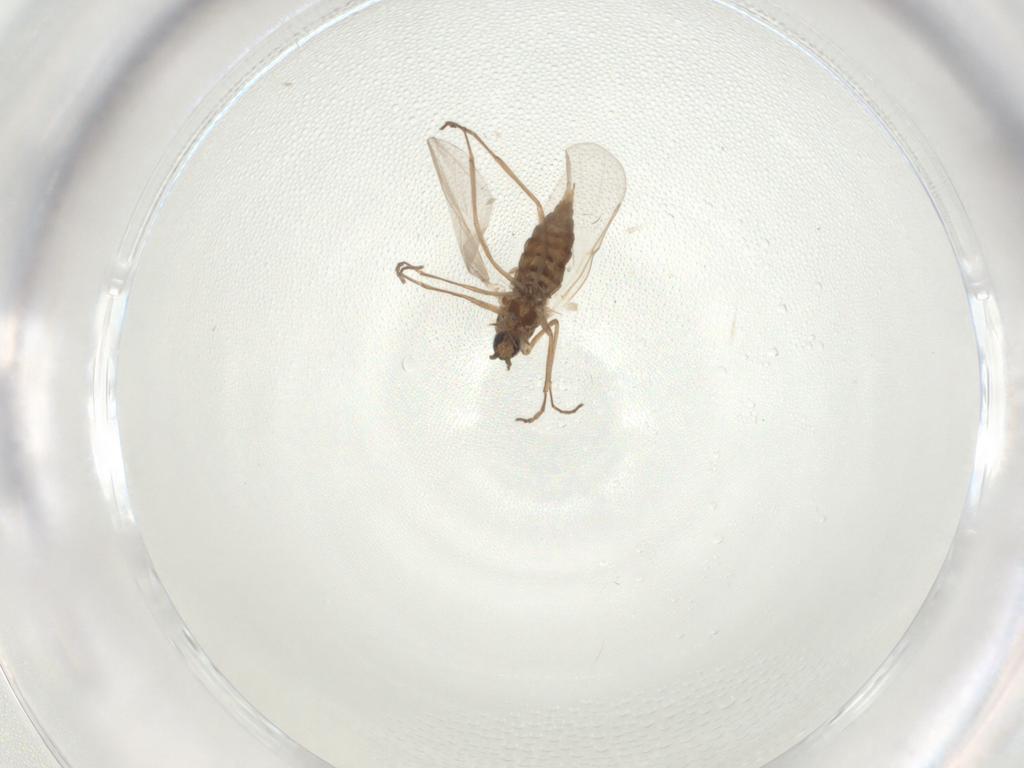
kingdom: Animalia
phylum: Arthropoda
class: Insecta
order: Diptera
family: Cecidomyiidae
